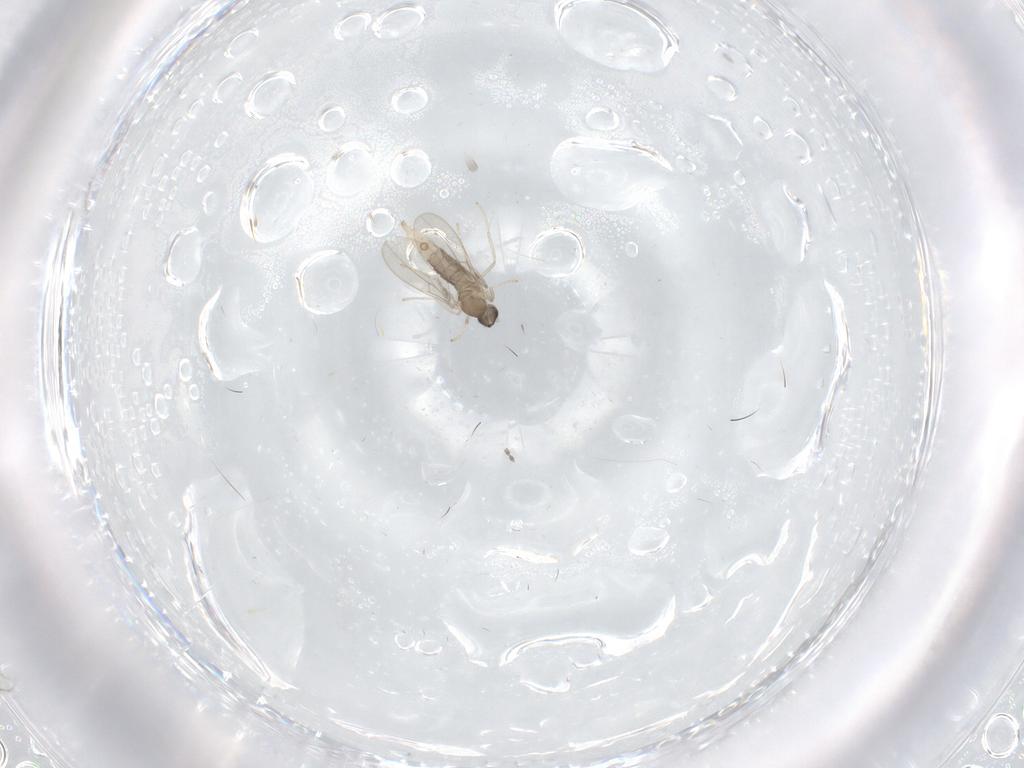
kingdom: Animalia
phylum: Arthropoda
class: Insecta
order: Diptera
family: Cecidomyiidae
